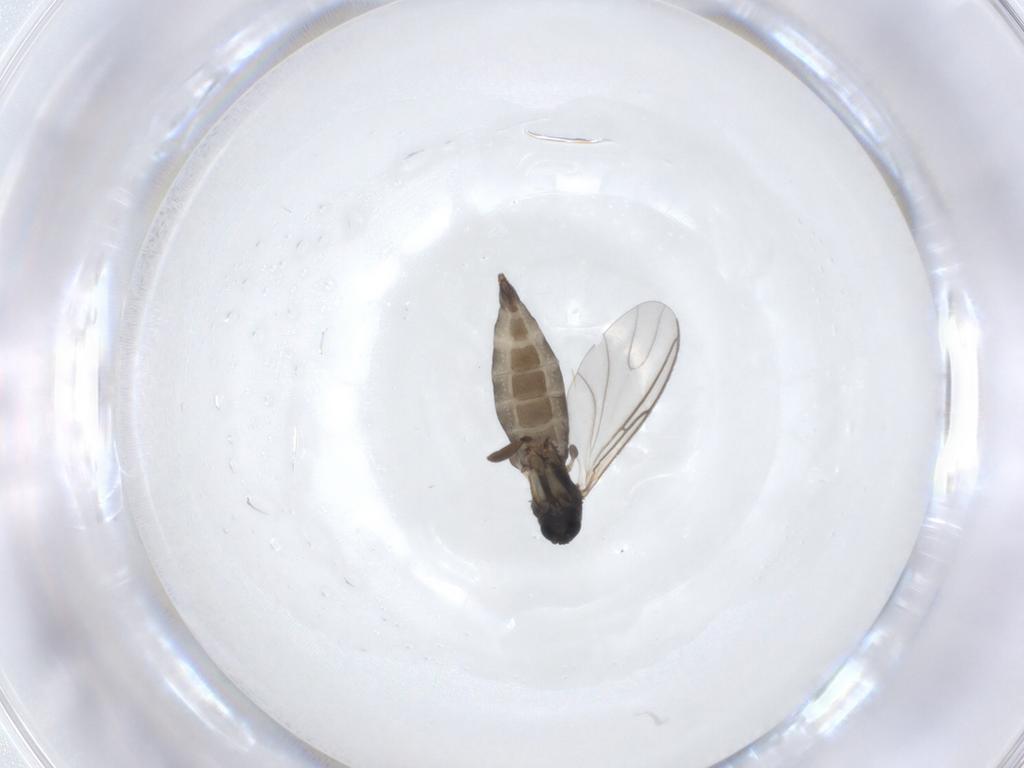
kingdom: Animalia
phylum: Arthropoda
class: Insecta
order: Diptera
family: Sciaridae
